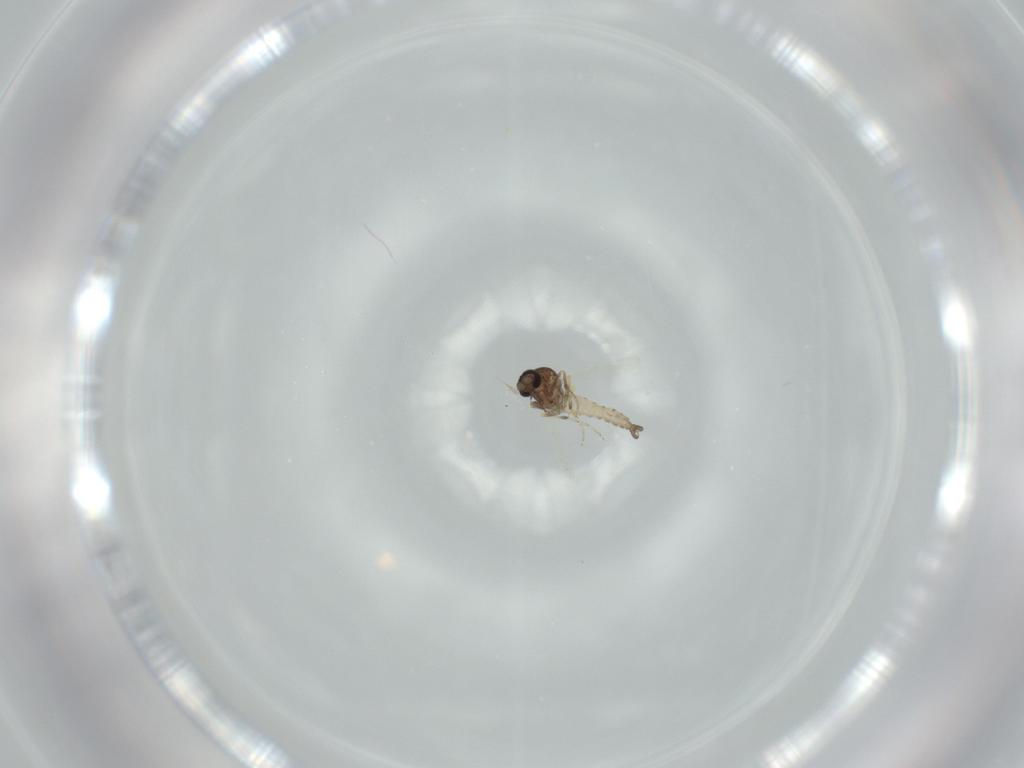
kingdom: Animalia
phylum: Arthropoda
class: Insecta
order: Diptera
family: Ceratopogonidae
